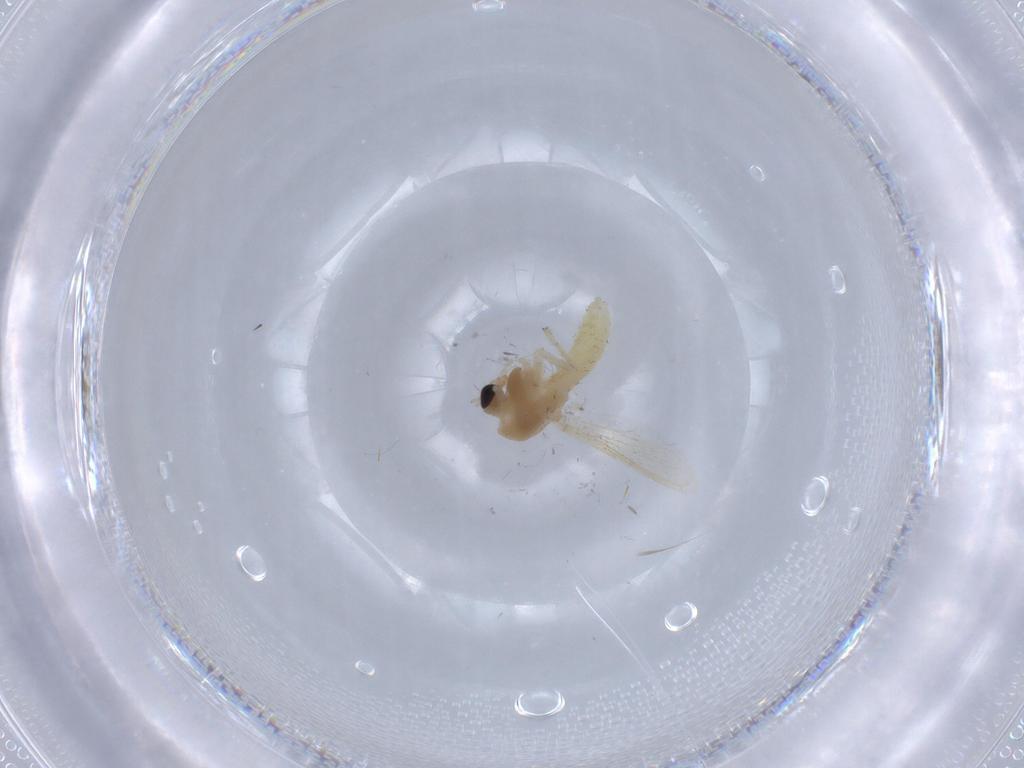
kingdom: Animalia
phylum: Arthropoda
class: Insecta
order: Diptera
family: Chironomidae
